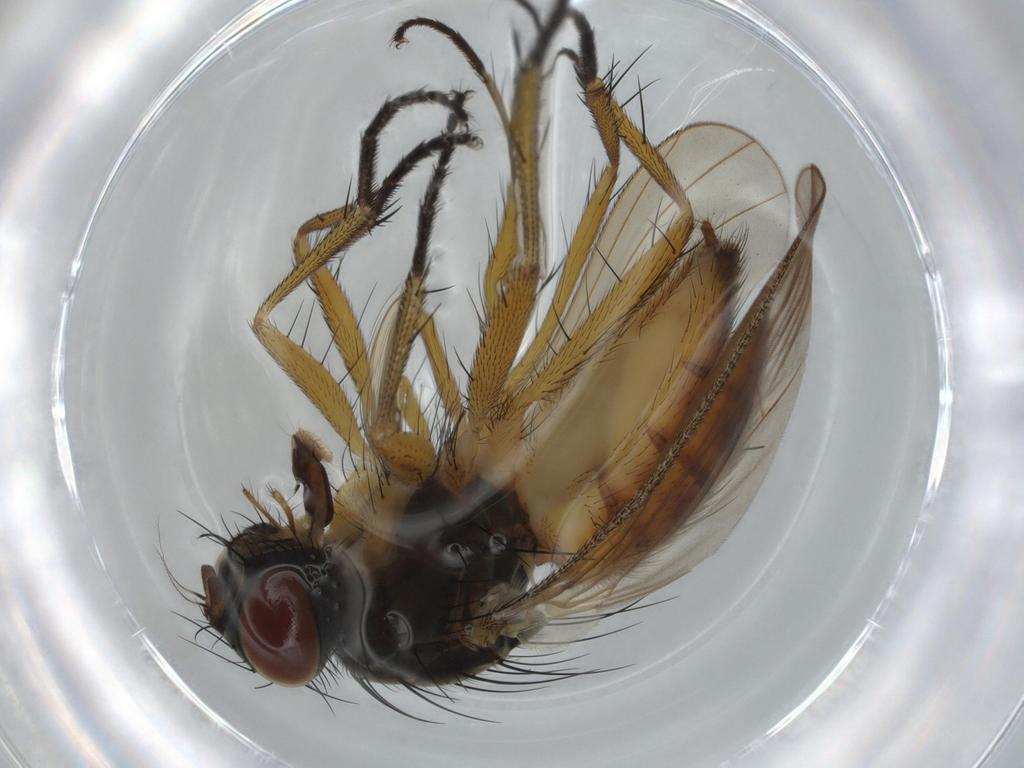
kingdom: Animalia
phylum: Arthropoda
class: Insecta
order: Diptera
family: Muscidae
